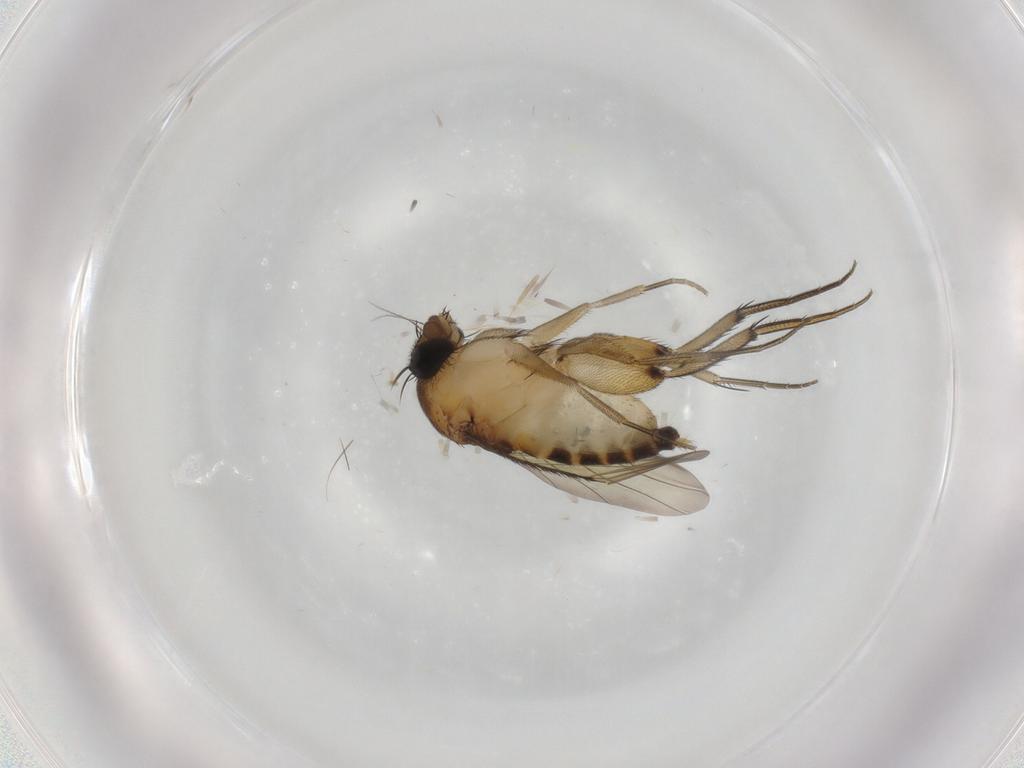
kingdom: Animalia
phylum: Arthropoda
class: Insecta
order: Diptera
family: Phoridae
